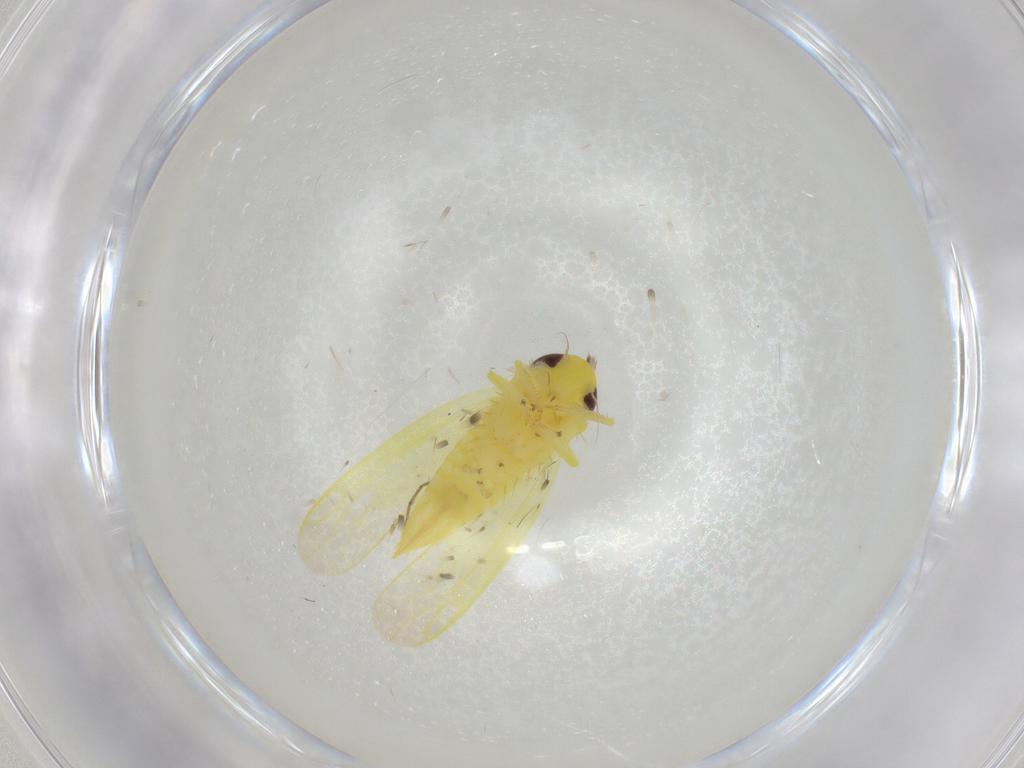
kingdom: Animalia
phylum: Arthropoda
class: Insecta
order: Hemiptera
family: Cicadellidae
